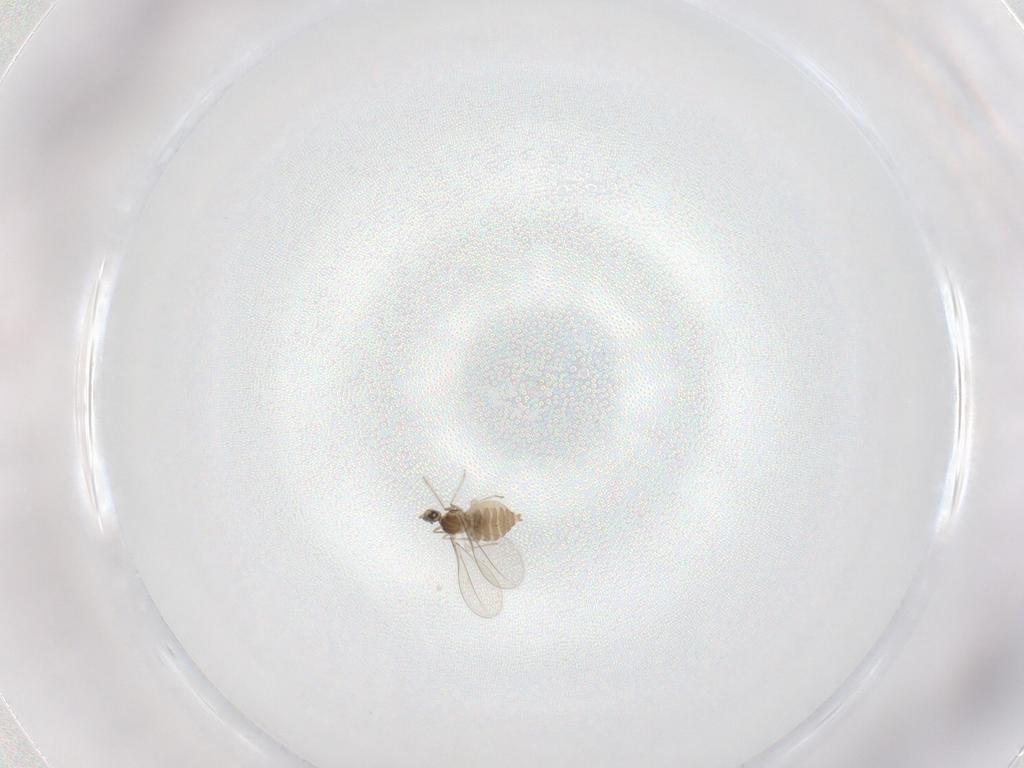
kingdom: Animalia
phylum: Arthropoda
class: Insecta
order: Diptera
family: Cecidomyiidae
